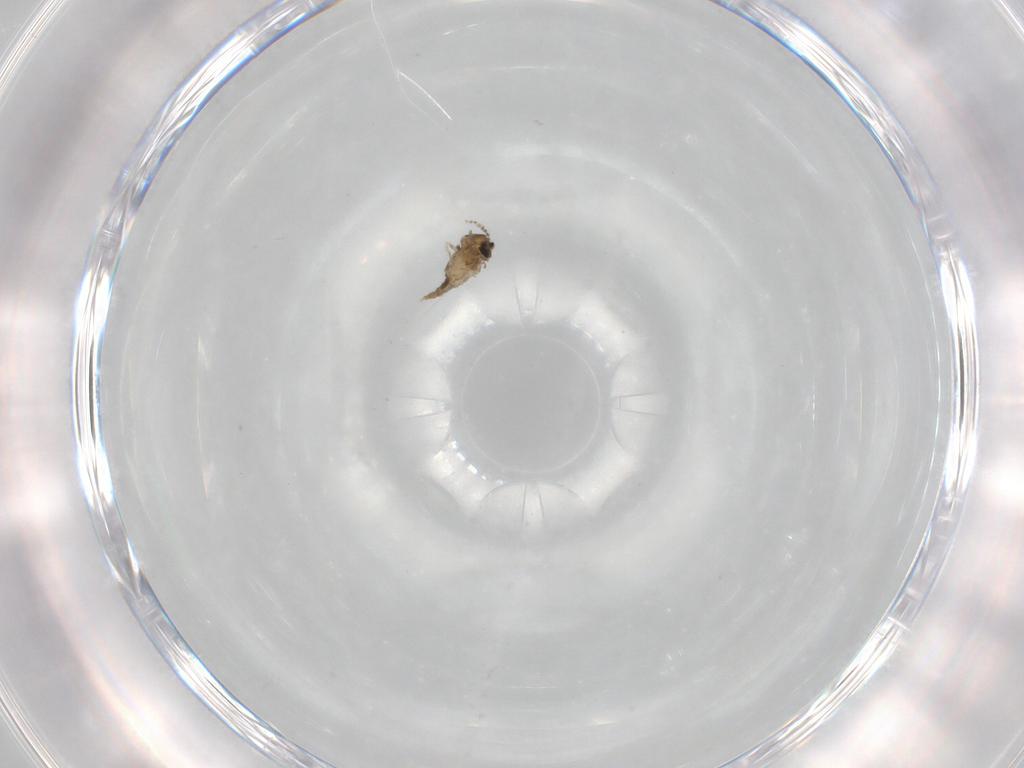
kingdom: Animalia
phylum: Arthropoda
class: Insecta
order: Diptera
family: Cecidomyiidae
